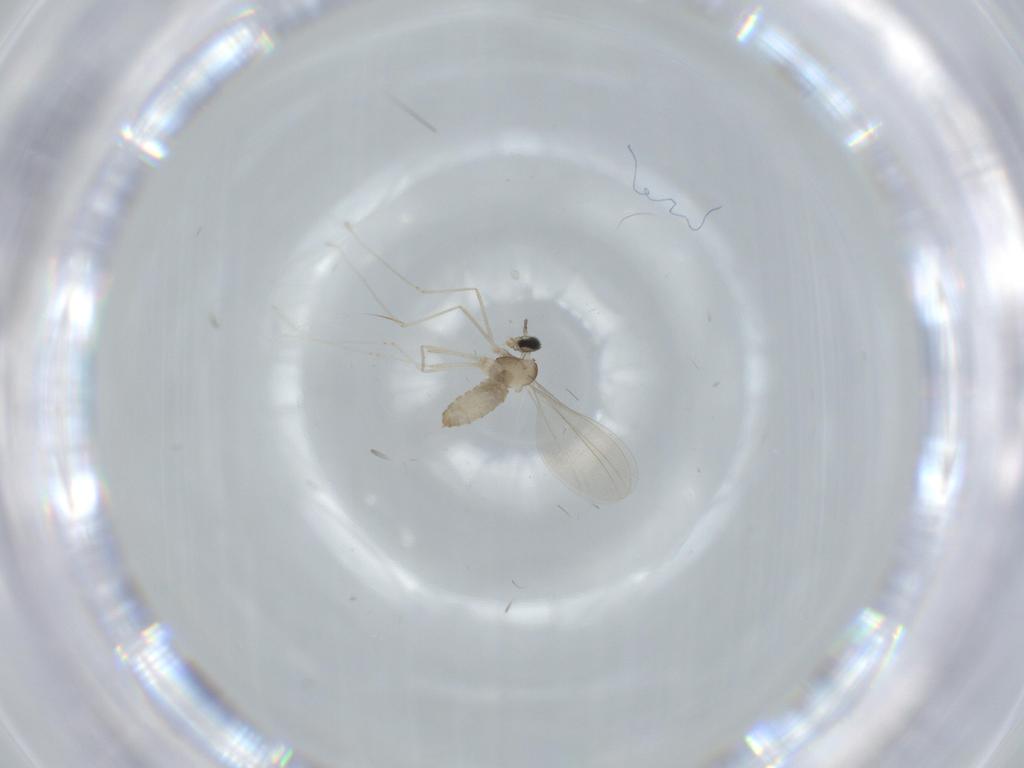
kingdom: Animalia
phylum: Arthropoda
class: Insecta
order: Diptera
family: Cecidomyiidae
